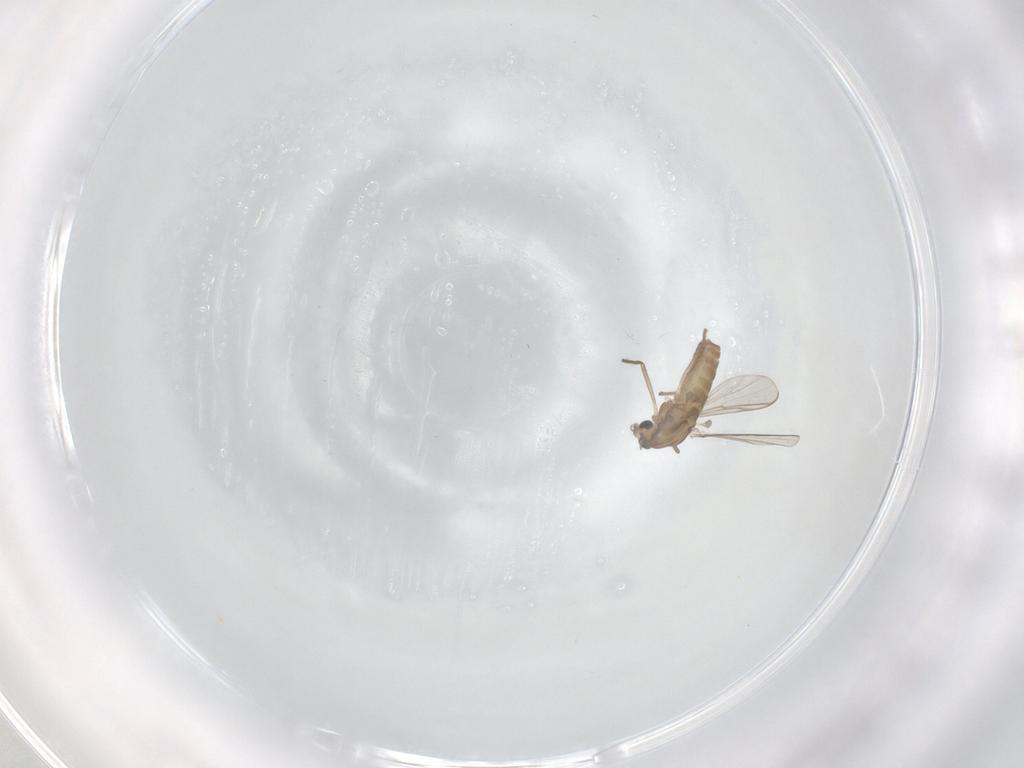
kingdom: Animalia
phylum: Arthropoda
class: Insecta
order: Diptera
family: Chironomidae
